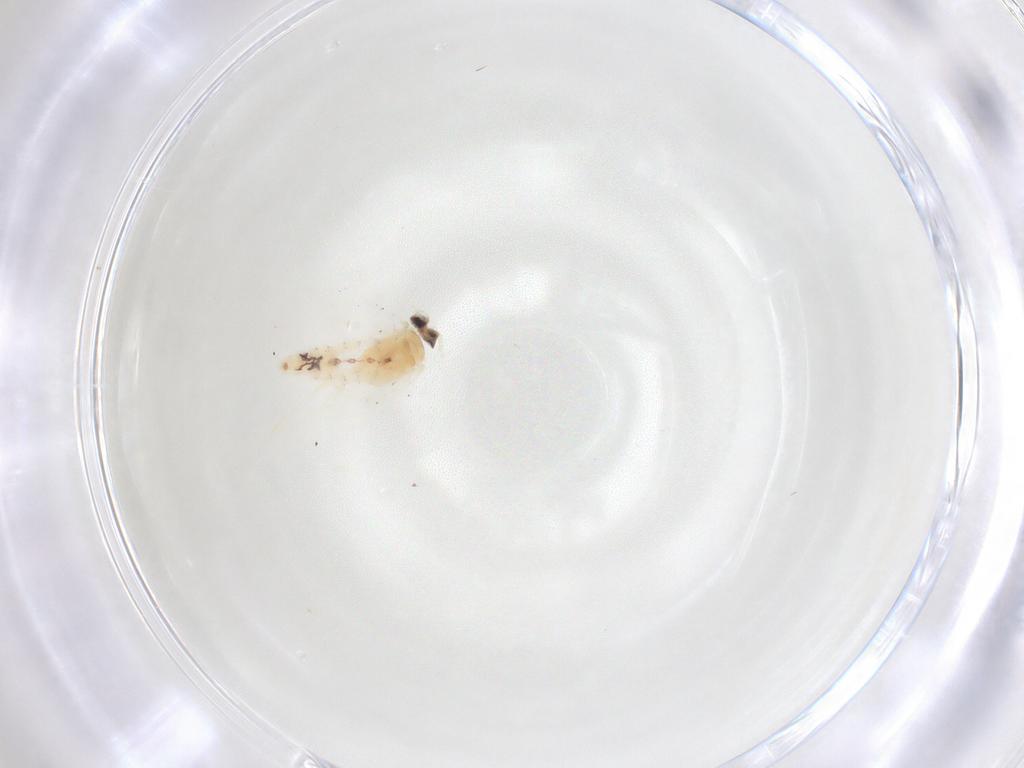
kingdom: Animalia
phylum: Arthropoda
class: Insecta
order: Lepidoptera
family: Nepticulidae
